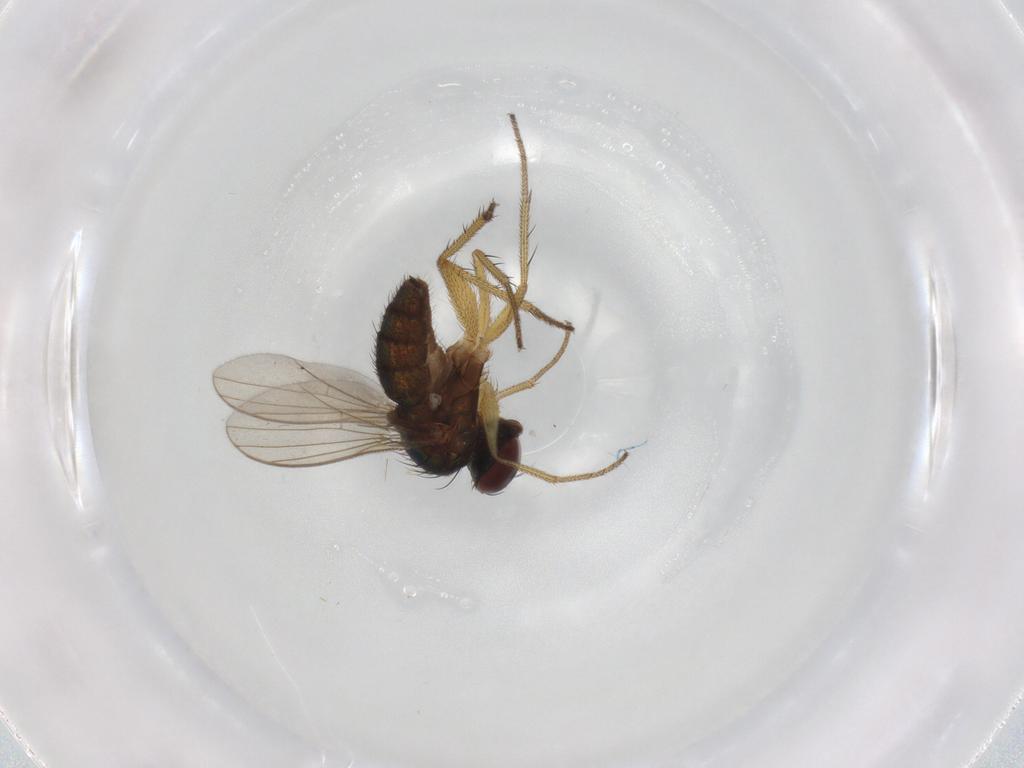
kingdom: Animalia
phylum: Arthropoda
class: Insecta
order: Diptera
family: Dolichopodidae
